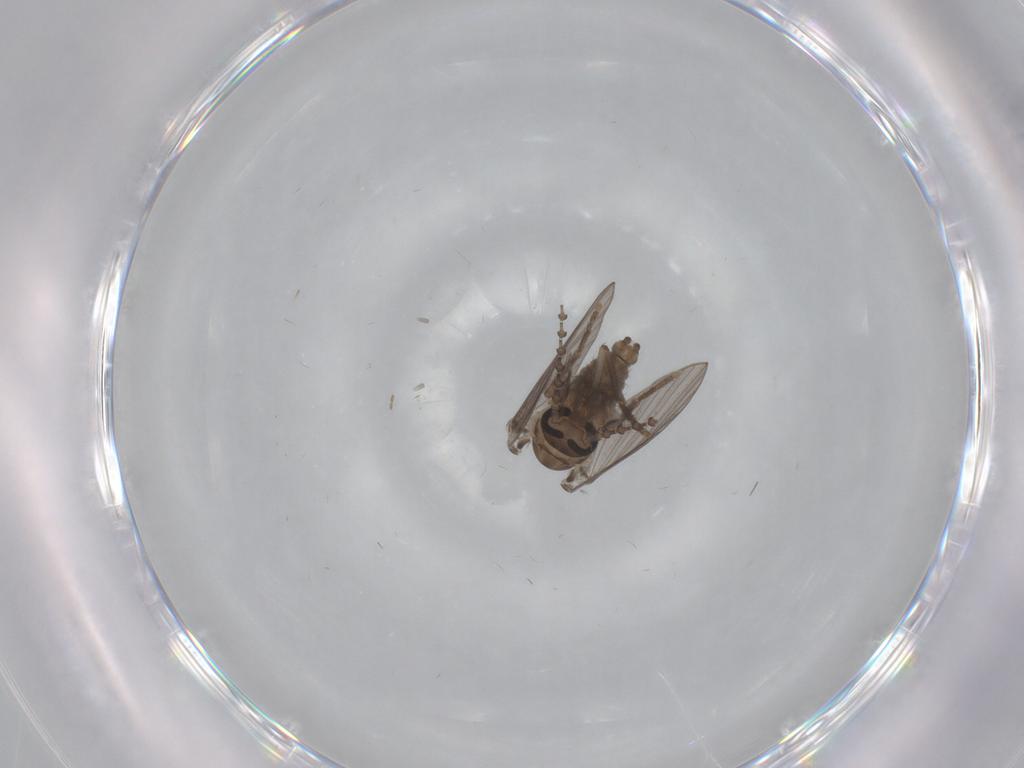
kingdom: Animalia
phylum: Arthropoda
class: Insecta
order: Diptera
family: Psychodidae
